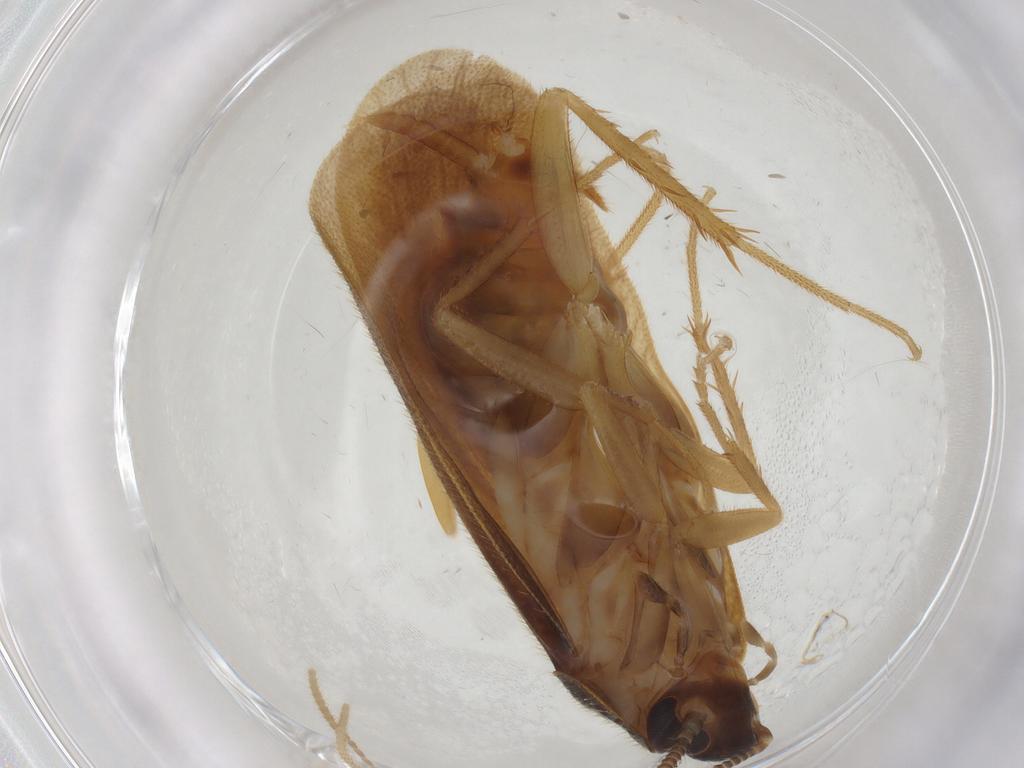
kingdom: Animalia
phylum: Arthropoda
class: Insecta
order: Blattodea
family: Ectobiidae
